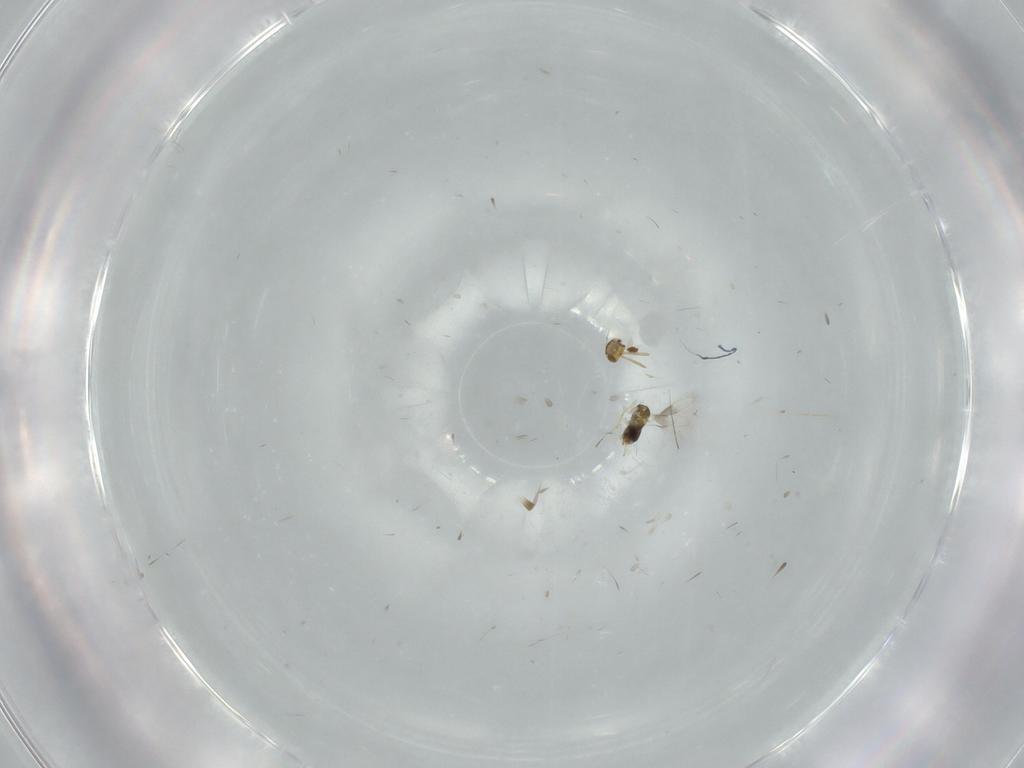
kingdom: Animalia
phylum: Arthropoda
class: Insecta
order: Hymenoptera
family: Aphelinidae
